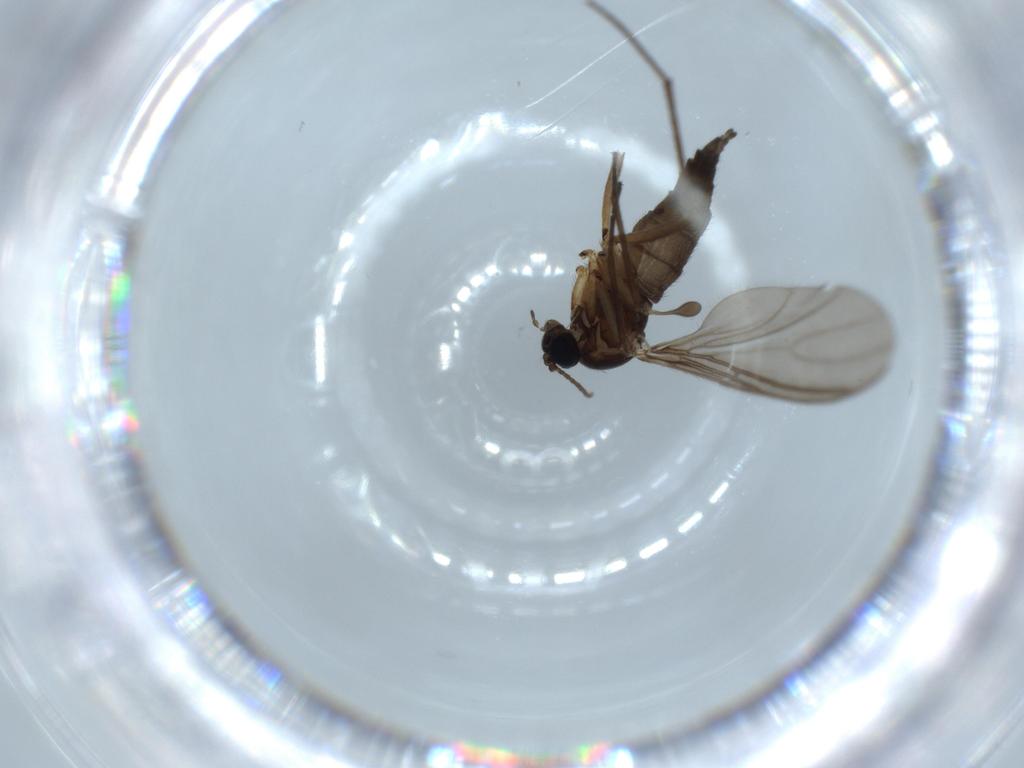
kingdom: Animalia
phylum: Arthropoda
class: Insecta
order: Diptera
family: Sciaridae
